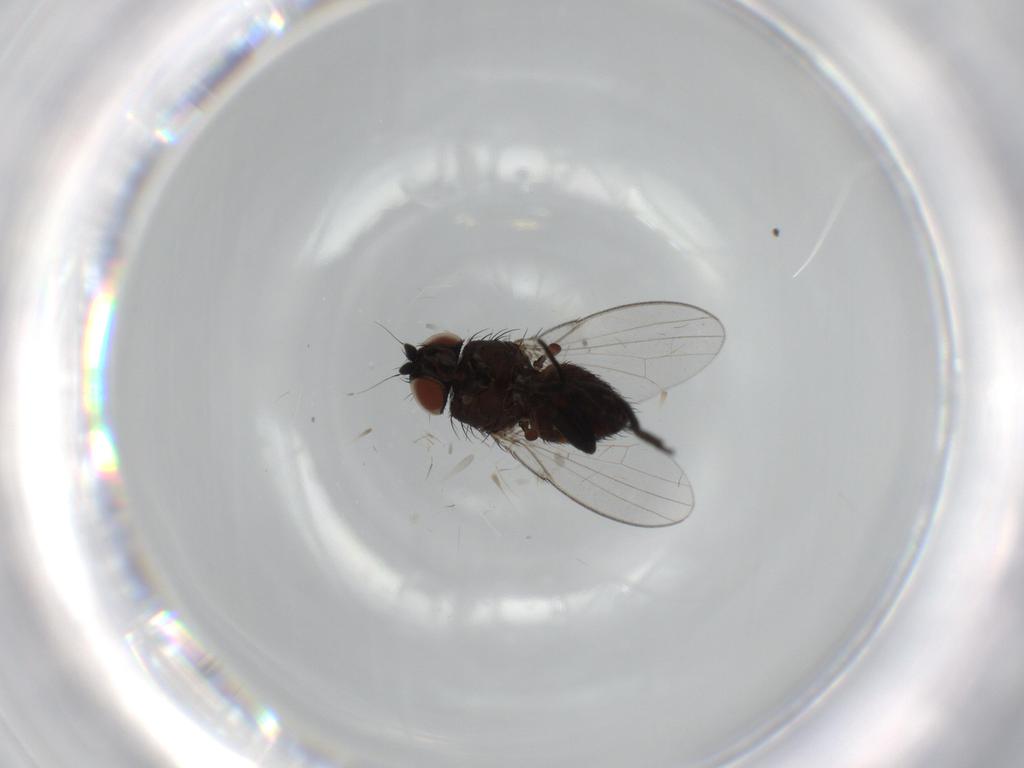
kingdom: Animalia
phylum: Arthropoda
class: Insecta
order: Diptera
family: Milichiidae
